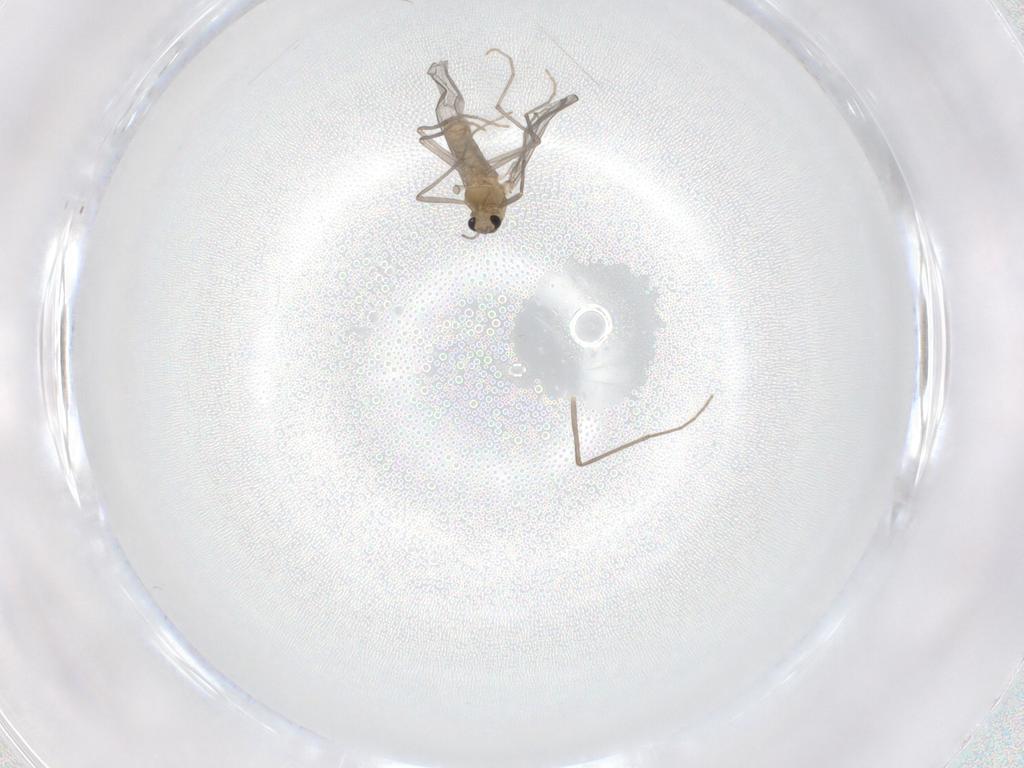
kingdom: Animalia
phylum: Arthropoda
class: Insecta
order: Diptera
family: Chironomidae
